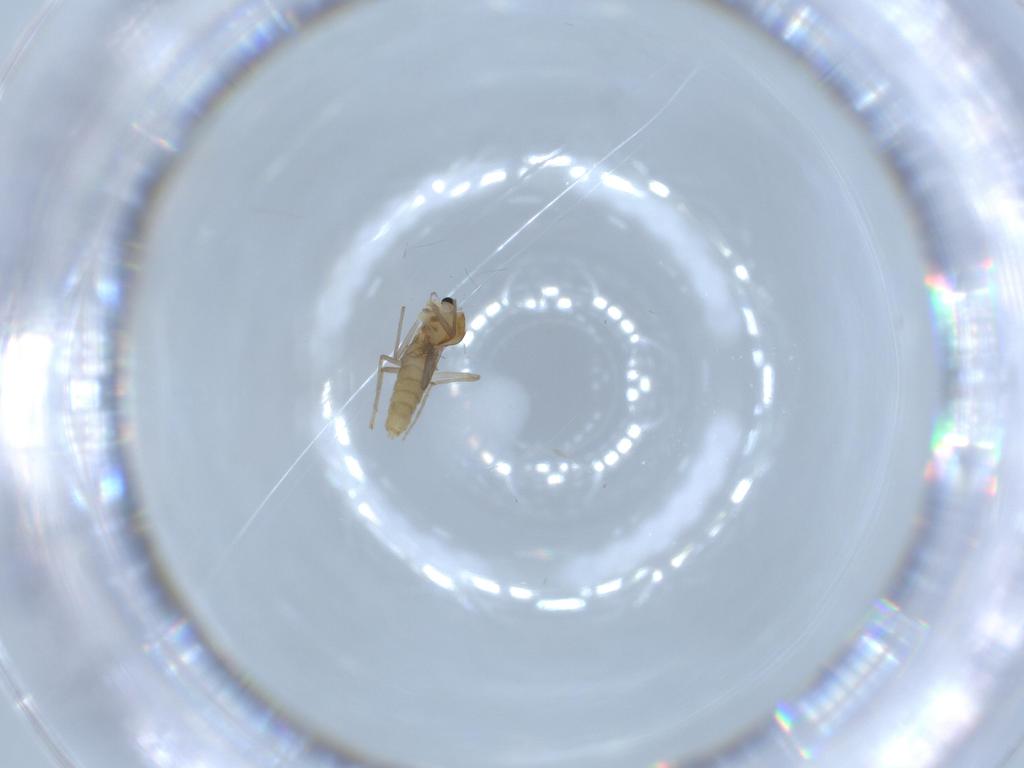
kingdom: Animalia
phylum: Arthropoda
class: Insecta
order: Diptera
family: Chironomidae
